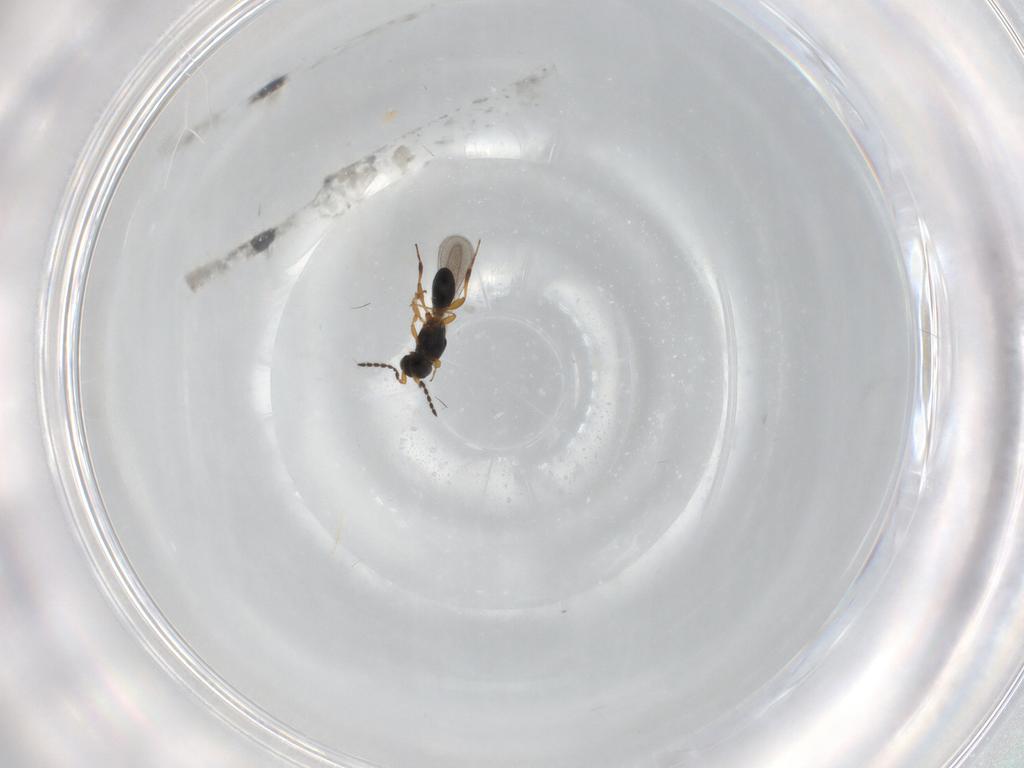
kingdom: Animalia
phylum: Arthropoda
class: Insecta
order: Hymenoptera
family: Platygastridae
